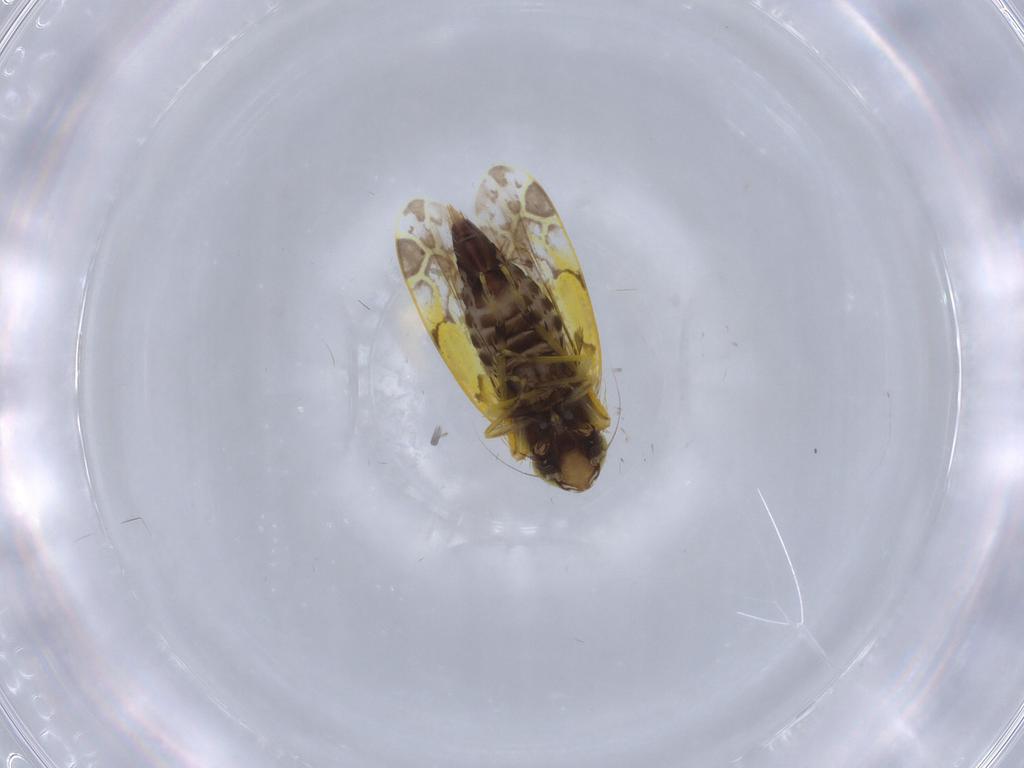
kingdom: Animalia
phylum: Arthropoda
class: Insecta
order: Hemiptera
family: Cicadellidae
